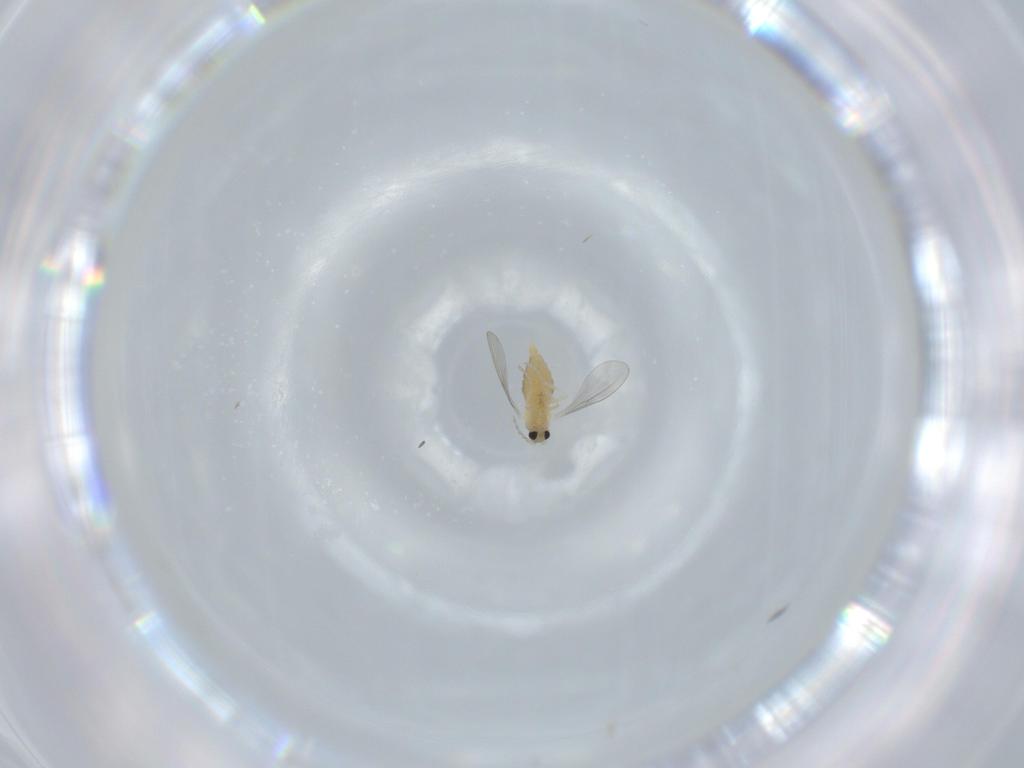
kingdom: Animalia
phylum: Arthropoda
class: Insecta
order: Diptera
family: Cecidomyiidae
